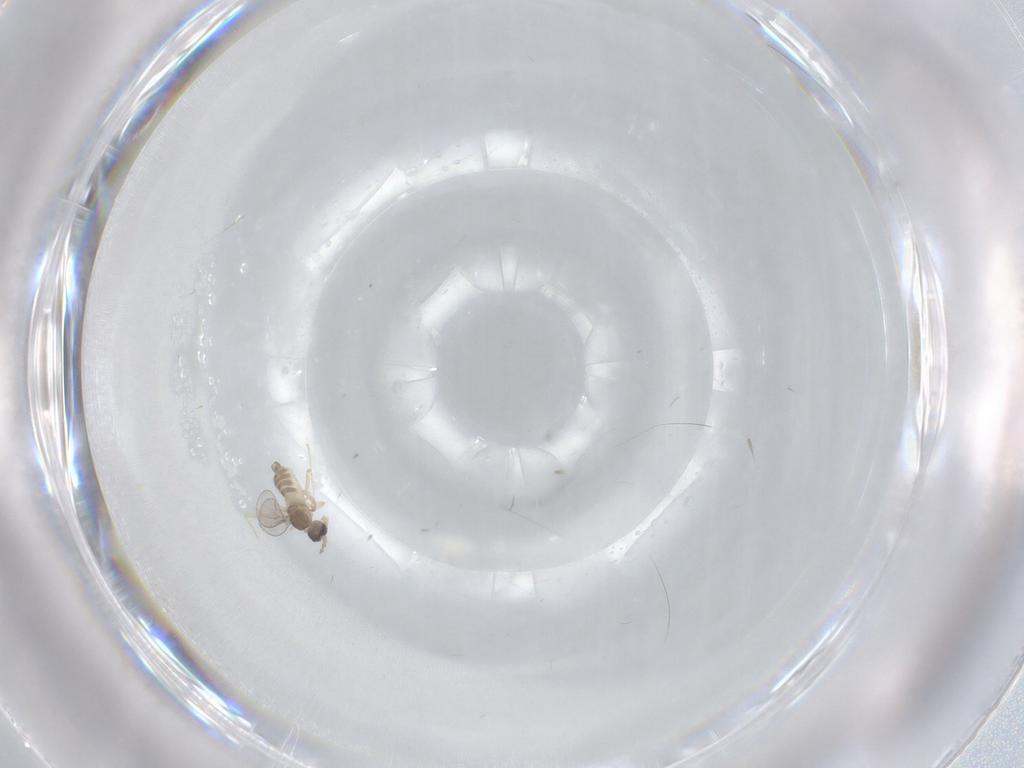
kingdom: Animalia
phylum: Arthropoda
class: Insecta
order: Diptera
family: Cecidomyiidae
